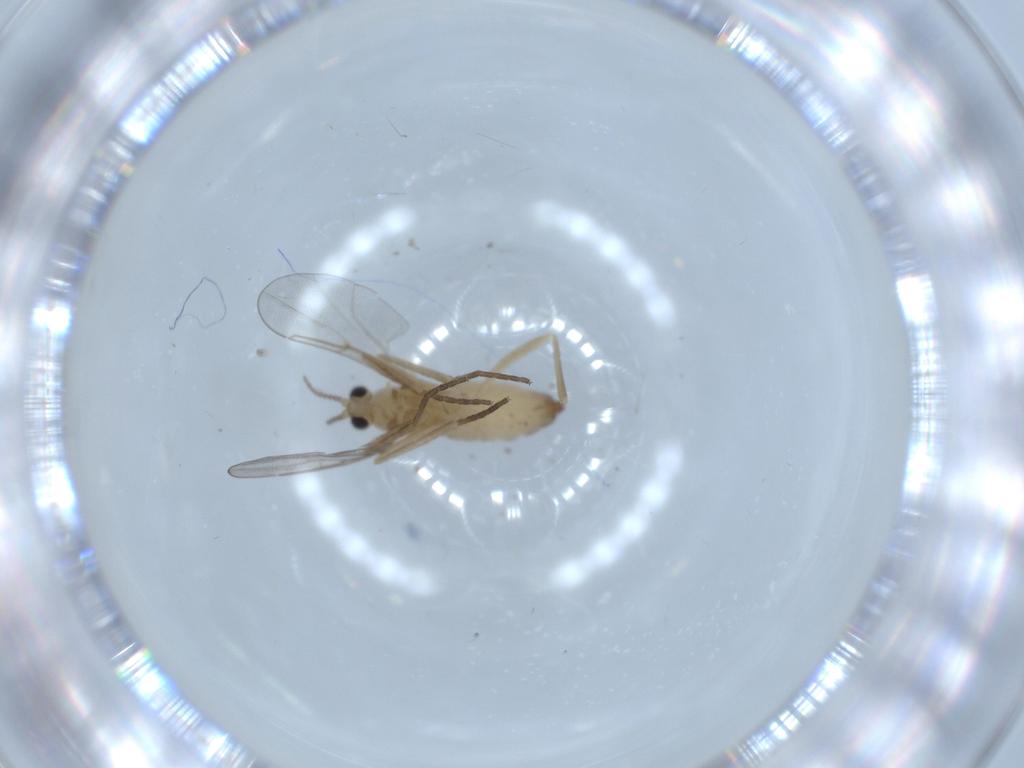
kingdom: Animalia
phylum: Arthropoda
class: Insecta
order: Diptera
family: Cecidomyiidae
